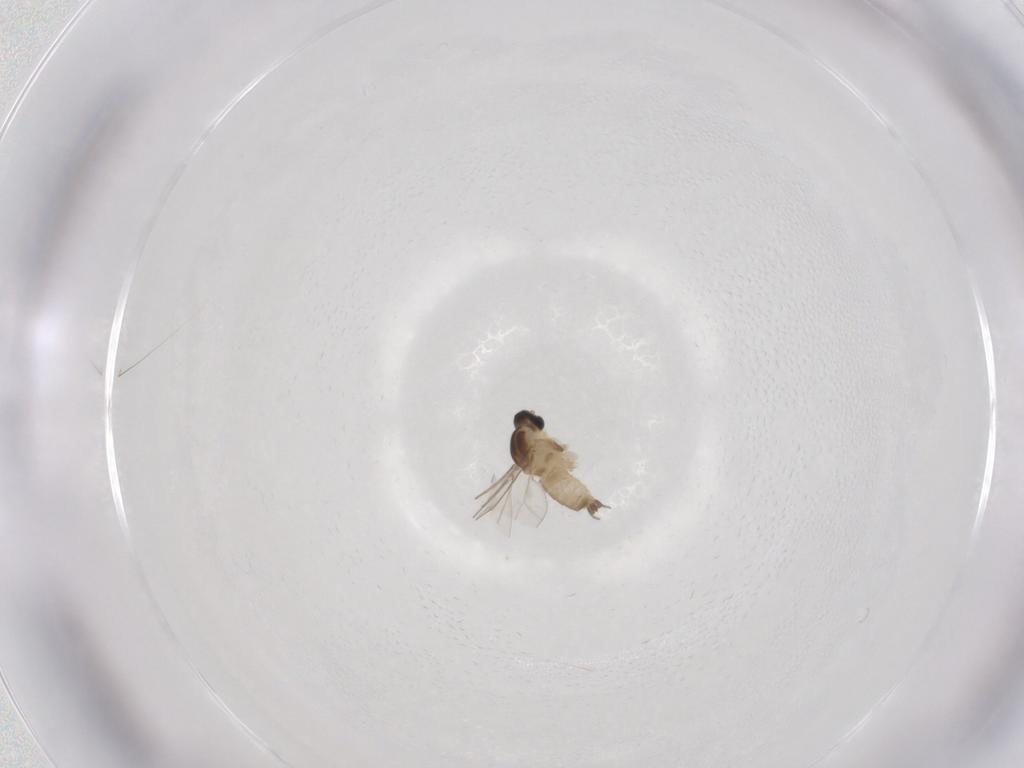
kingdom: Animalia
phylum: Arthropoda
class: Insecta
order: Diptera
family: Cecidomyiidae
